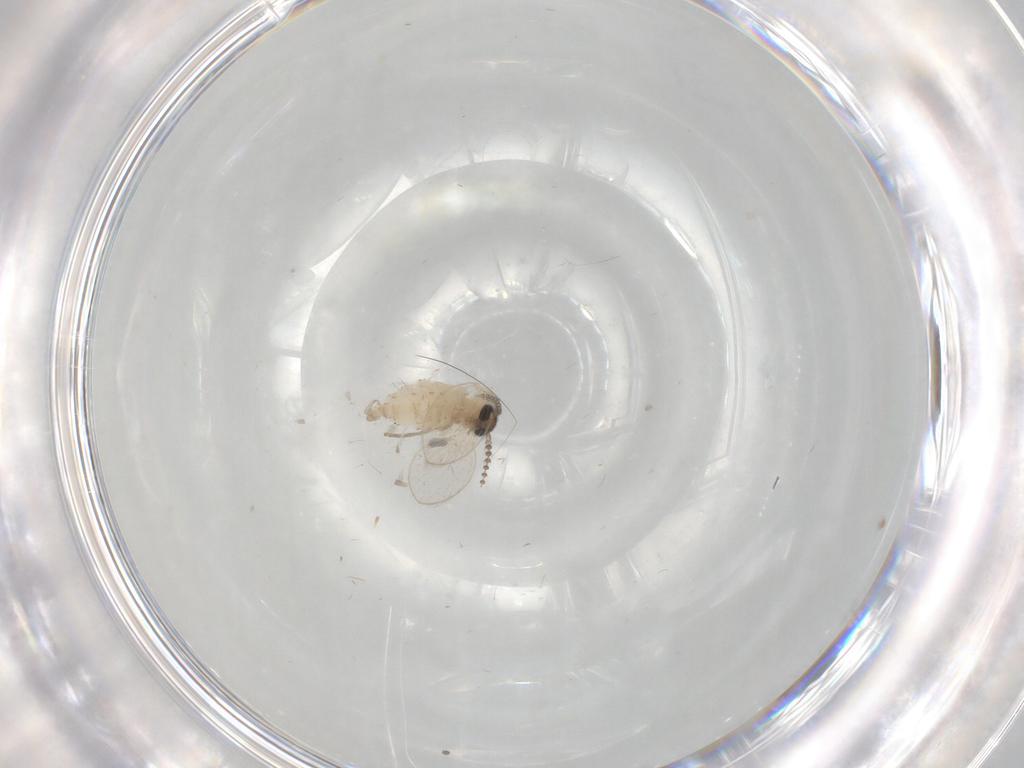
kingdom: Animalia
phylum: Arthropoda
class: Insecta
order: Diptera
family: Psychodidae
